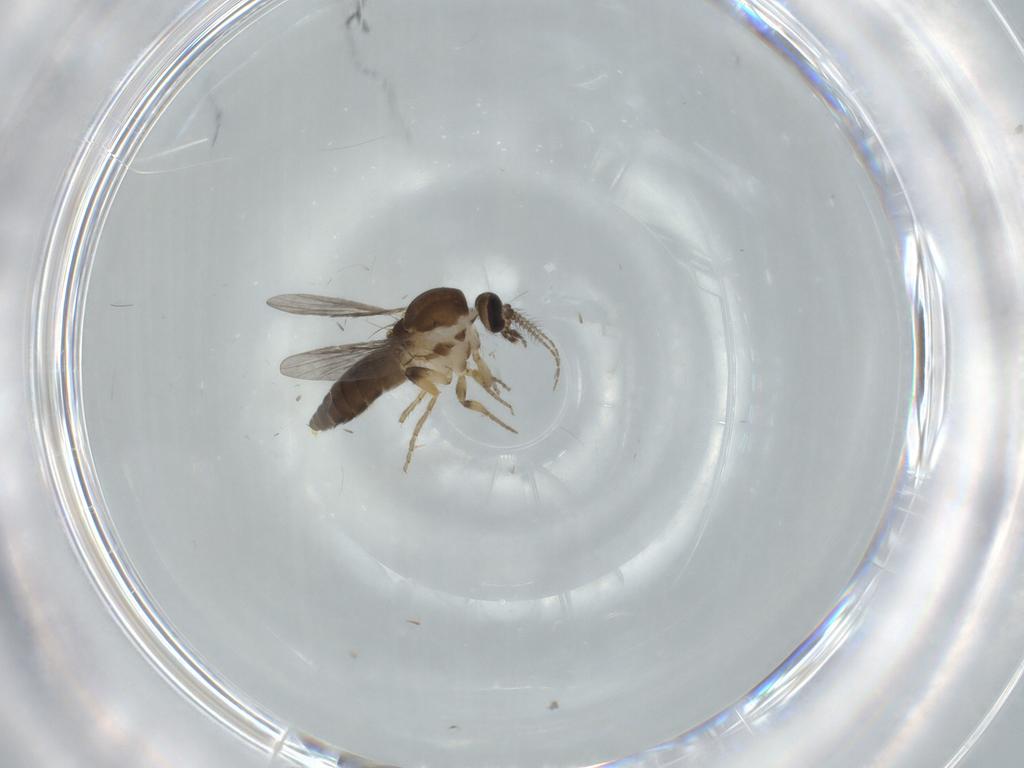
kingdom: Animalia
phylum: Arthropoda
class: Insecta
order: Diptera
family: Ceratopogonidae
